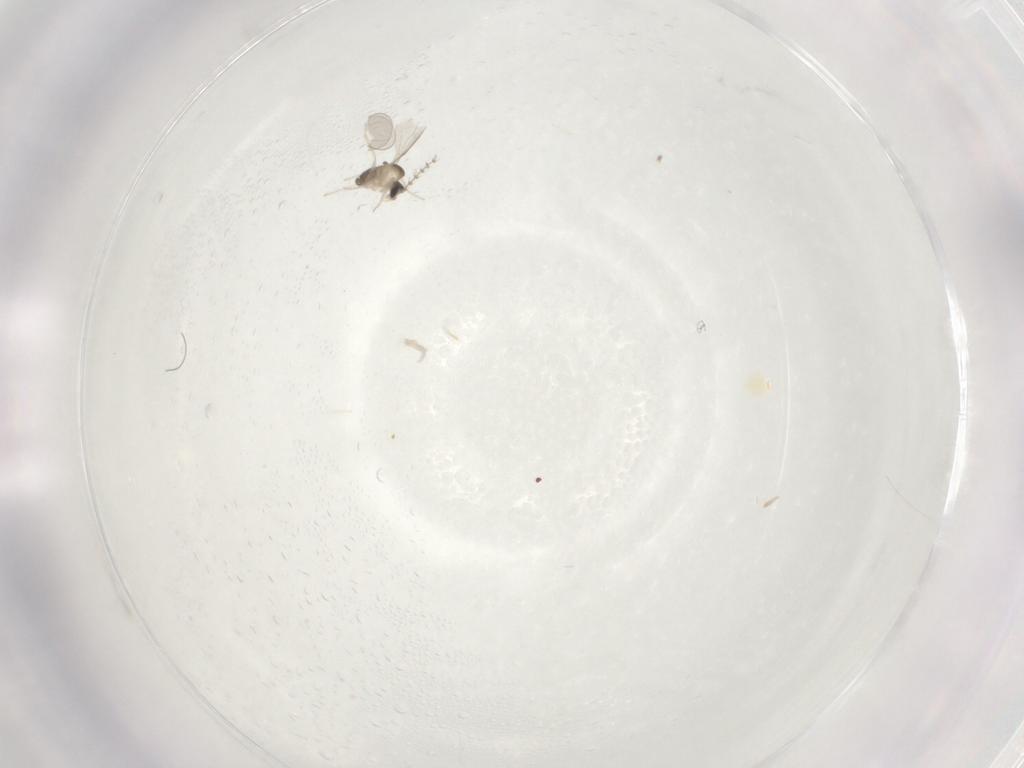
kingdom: Animalia
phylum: Arthropoda
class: Insecta
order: Diptera
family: Cecidomyiidae
